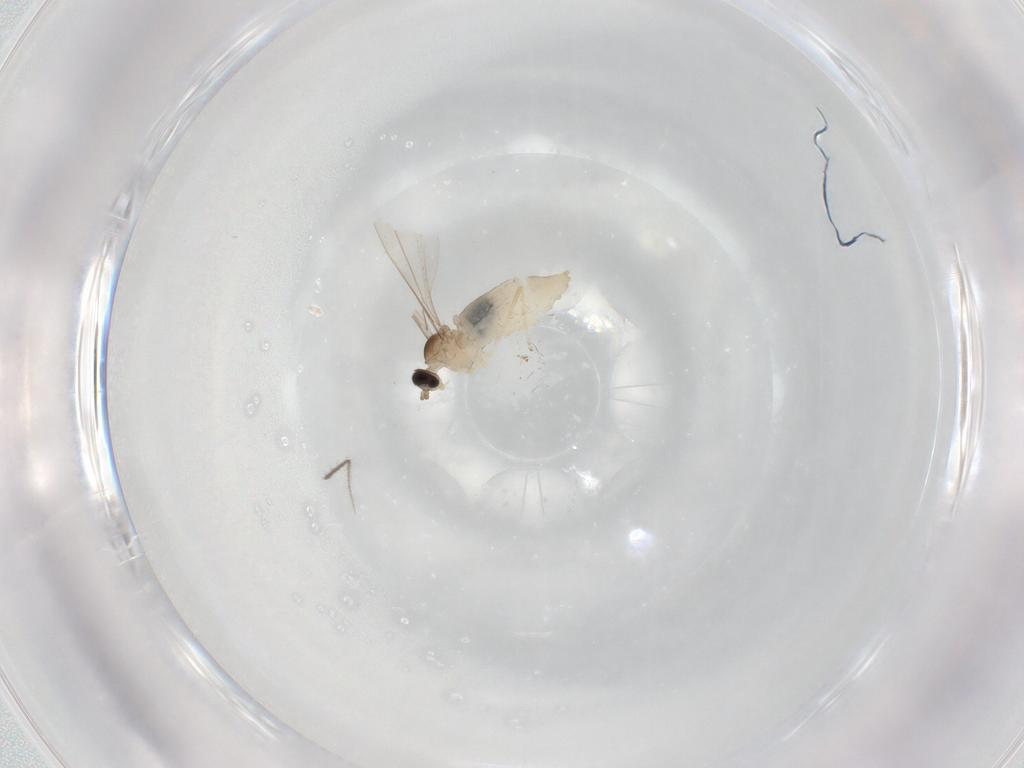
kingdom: Animalia
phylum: Arthropoda
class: Insecta
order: Diptera
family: Cecidomyiidae
